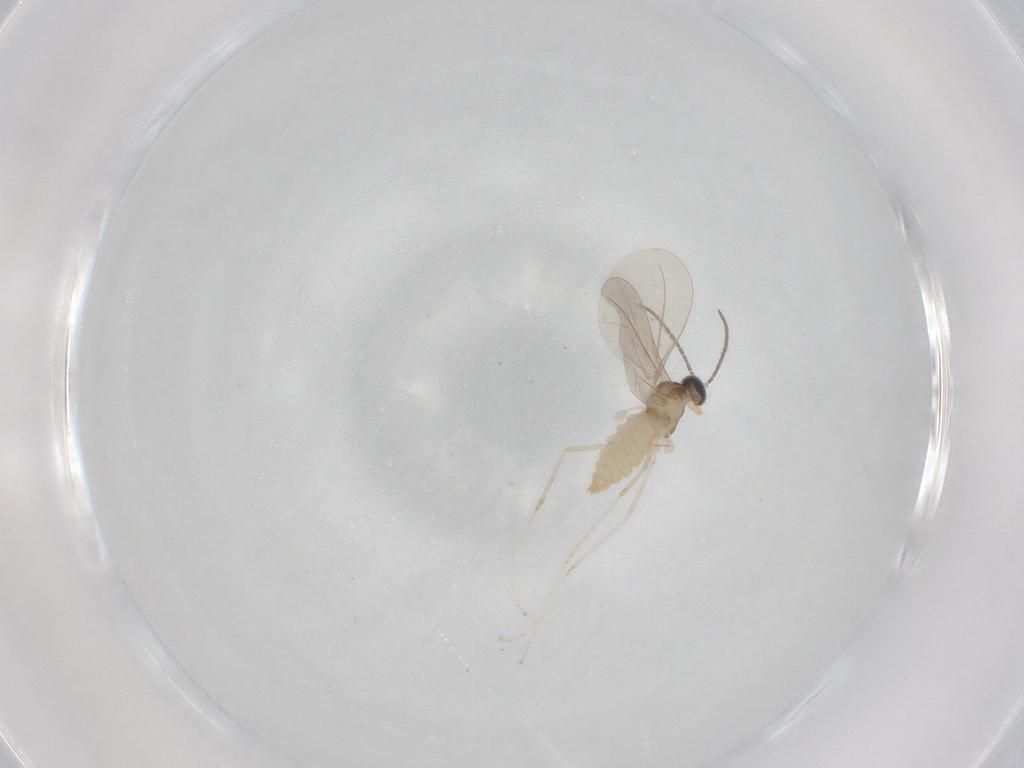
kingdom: Animalia
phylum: Arthropoda
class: Insecta
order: Diptera
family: Cecidomyiidae
